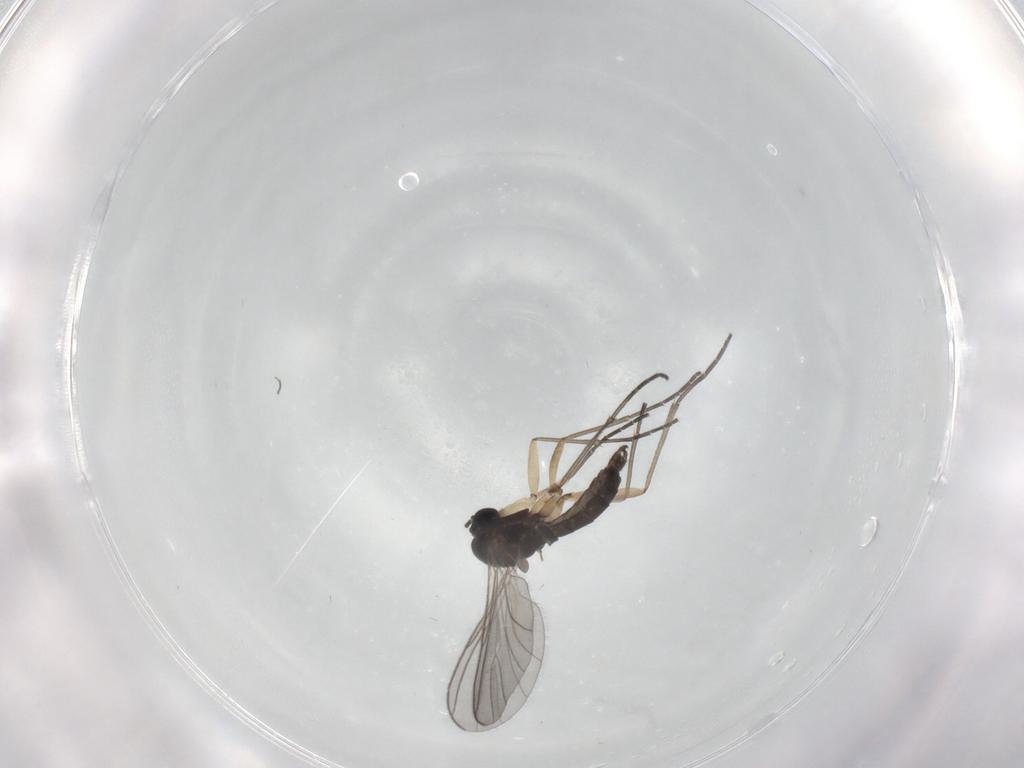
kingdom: Animalia
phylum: Arthropoda
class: Insecta
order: Diptera
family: Sciaridae
